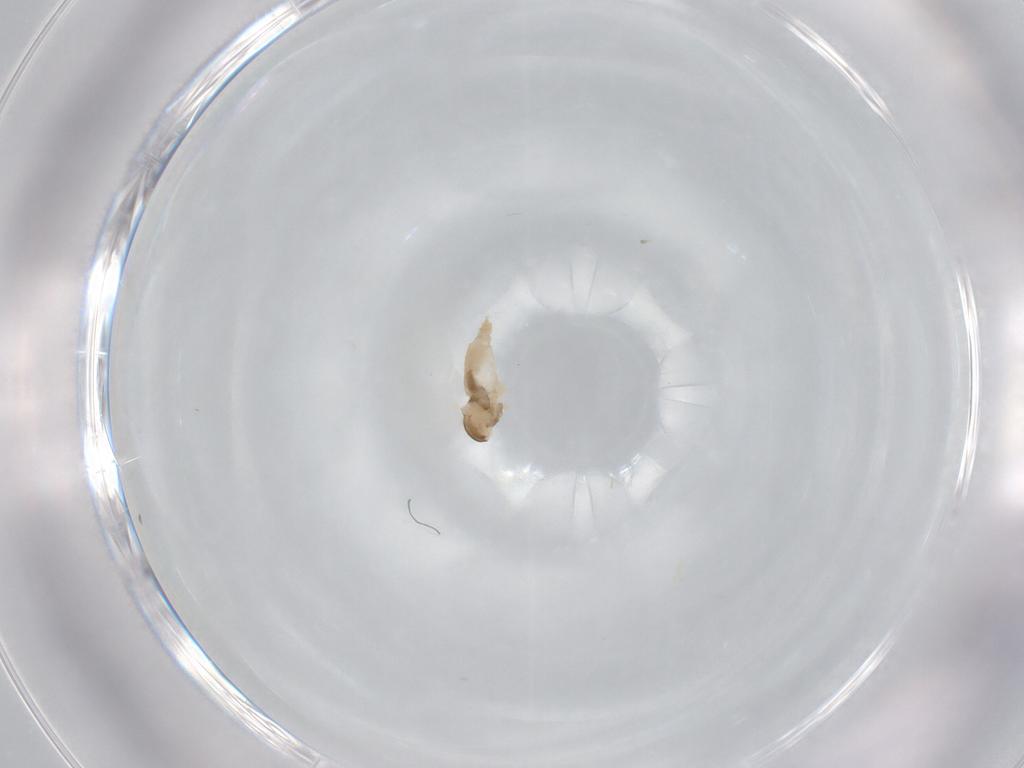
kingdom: Animalia
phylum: Arthropoda
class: Insecta
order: Diptera
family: Cecidomyiidae
